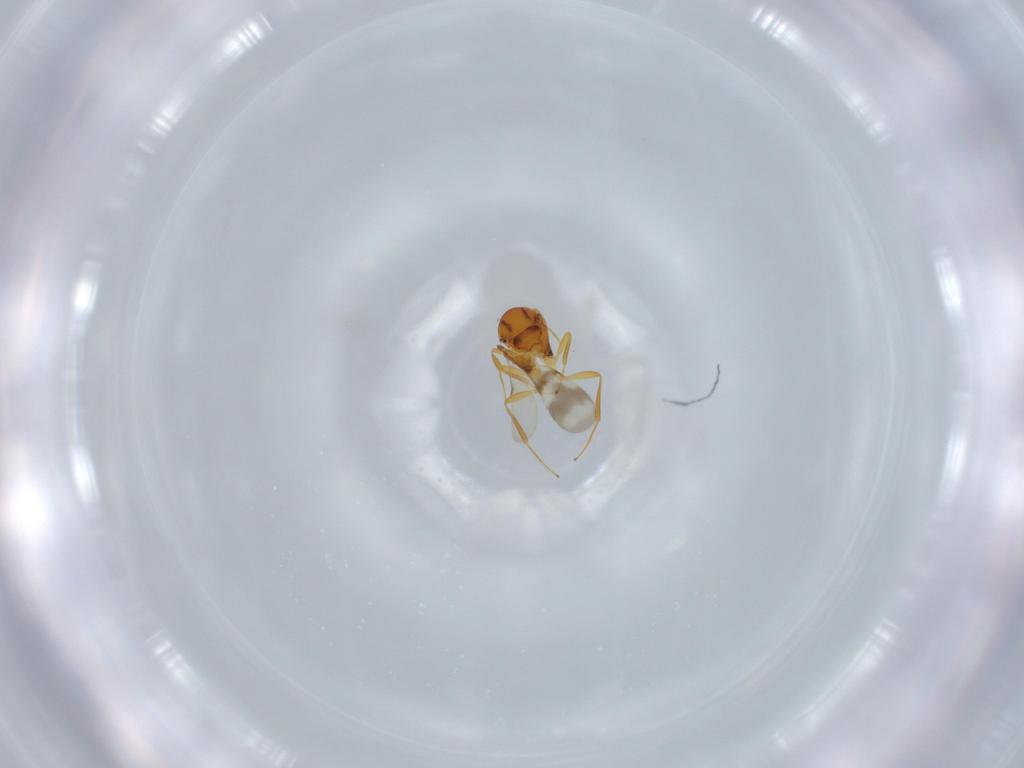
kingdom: Animalia
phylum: Arthropoda
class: Insecta
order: Hymenoptera
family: Scelionidae
